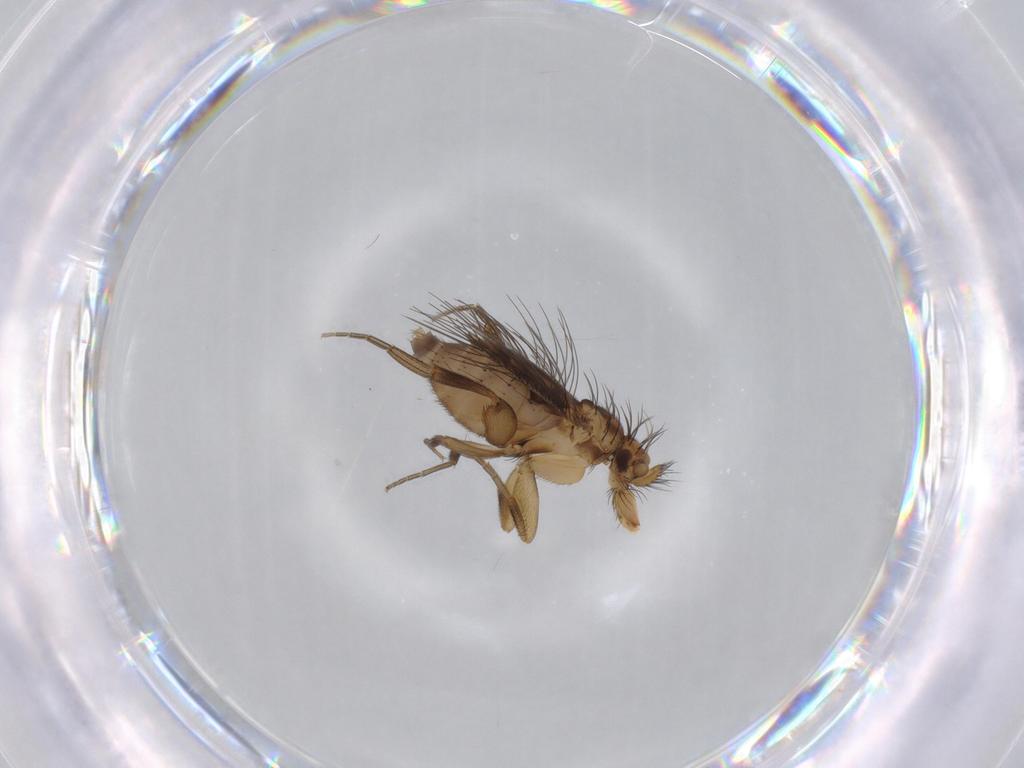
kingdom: Animalia
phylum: Arthropoda
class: Insecta
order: Diptera
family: Phoridae
